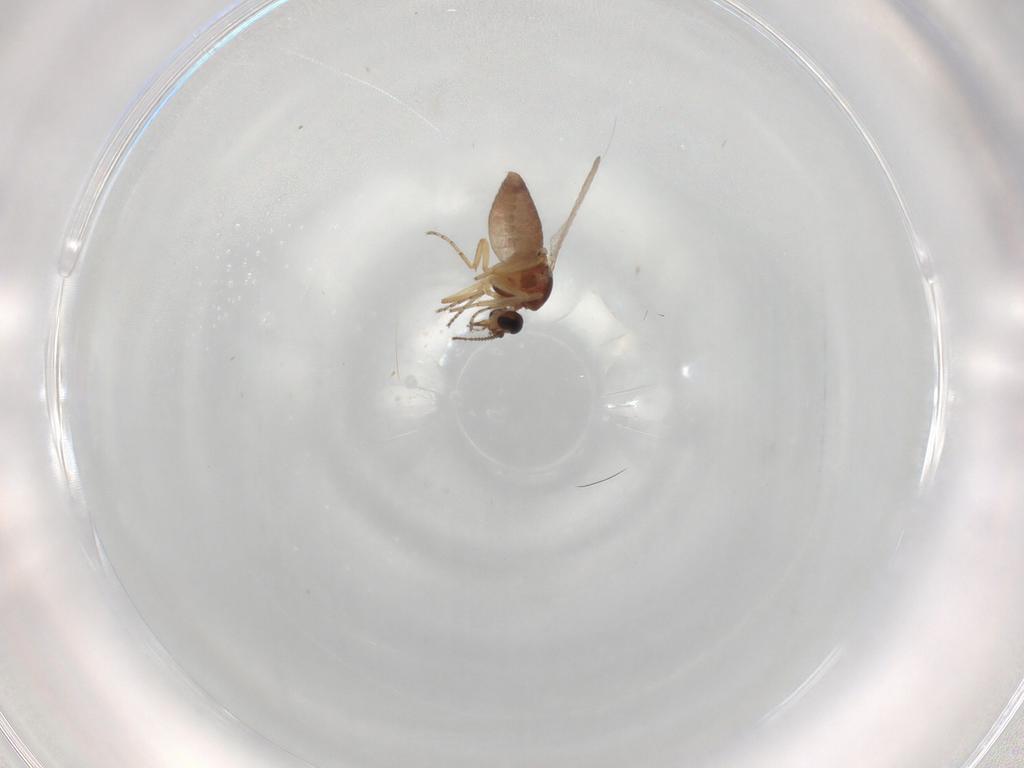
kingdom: Animalia
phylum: Arthropoda
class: Insecta
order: Diptera
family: Ceratopogonidae
